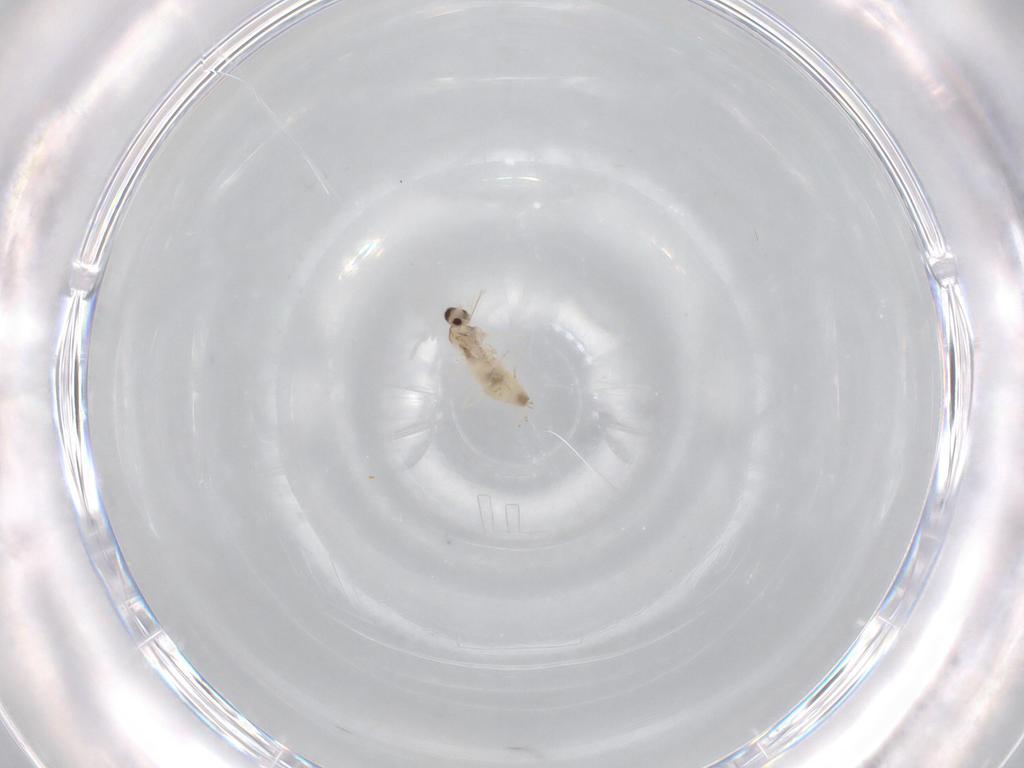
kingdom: Animalia
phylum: Arthropoda
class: Insecta
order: Diptera
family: Cecidomyiidae
